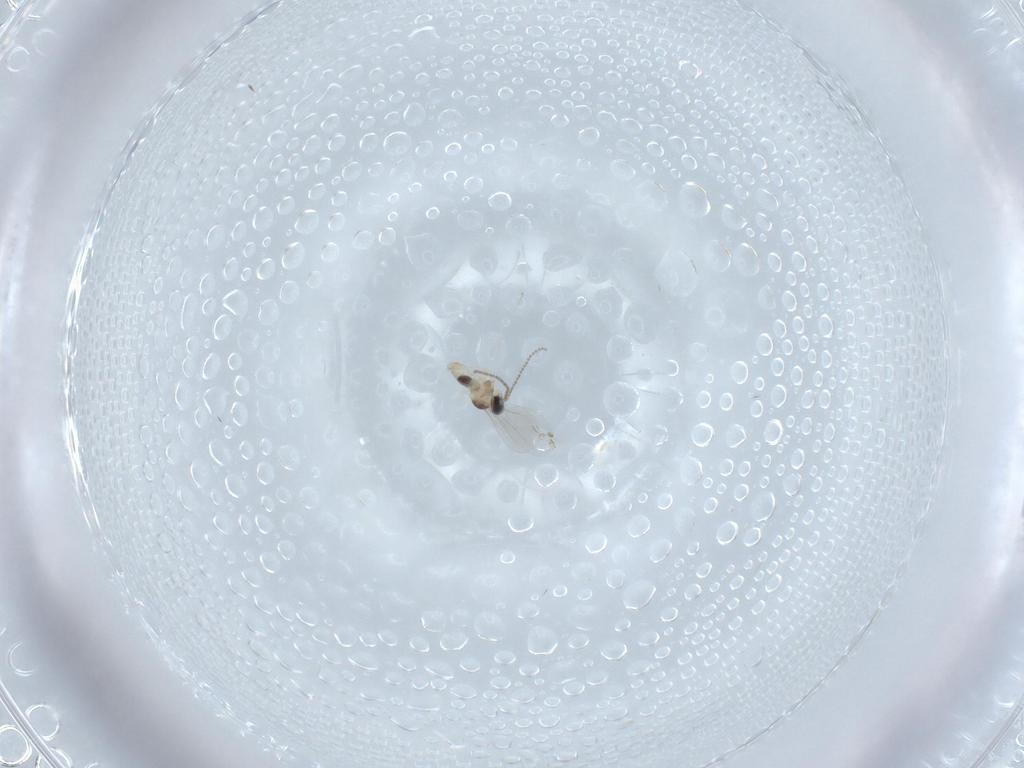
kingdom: Animalia
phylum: Arthropoda
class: Insecta
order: Diptera
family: Cecidomyiidae
